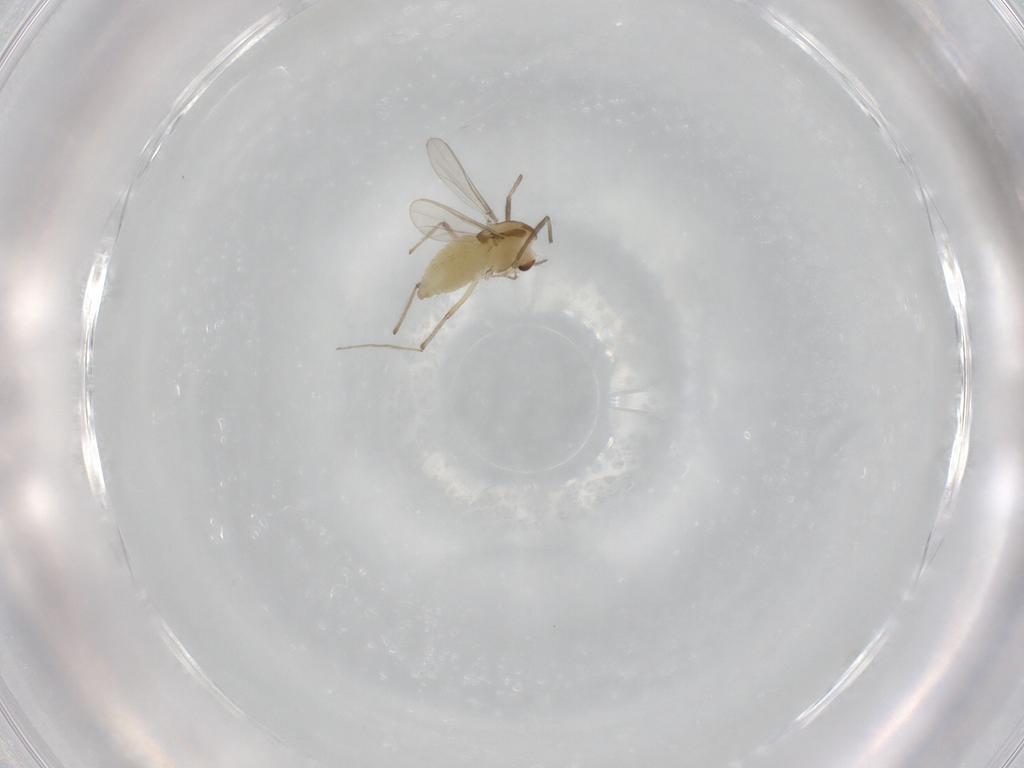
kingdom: Animalia
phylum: Arthropoda
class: Insecta
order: Diptera
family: Chironomidae
